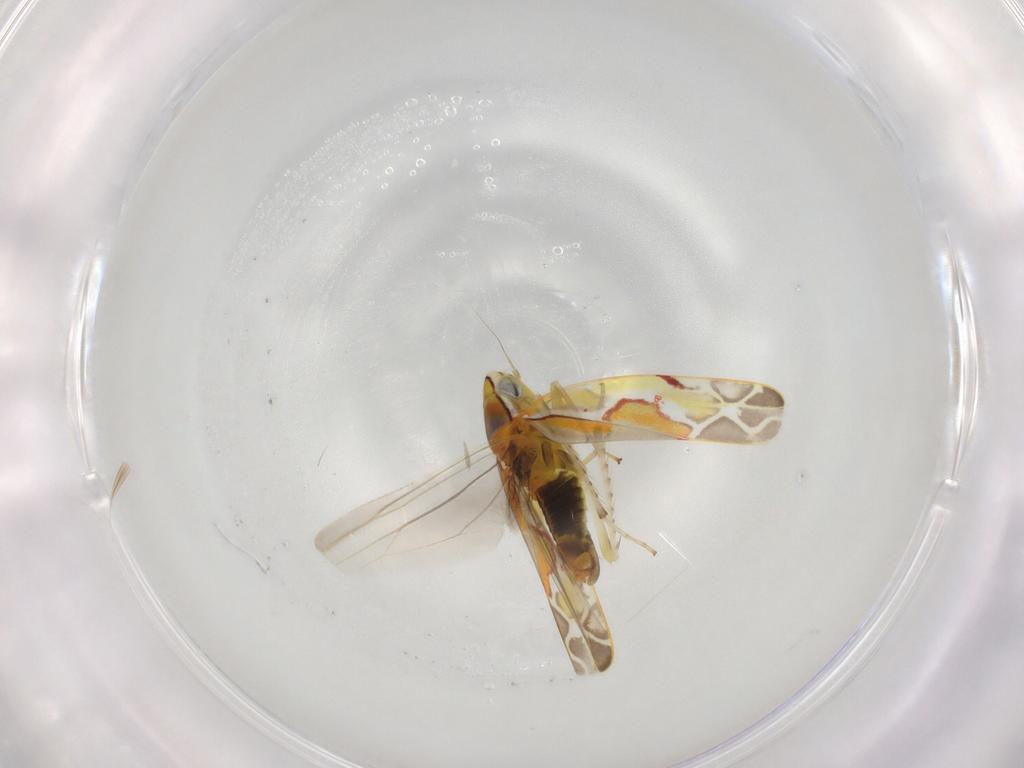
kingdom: Animalia
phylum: Arthropoda
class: Insecta
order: Hemiptera
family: Cicadellidae
